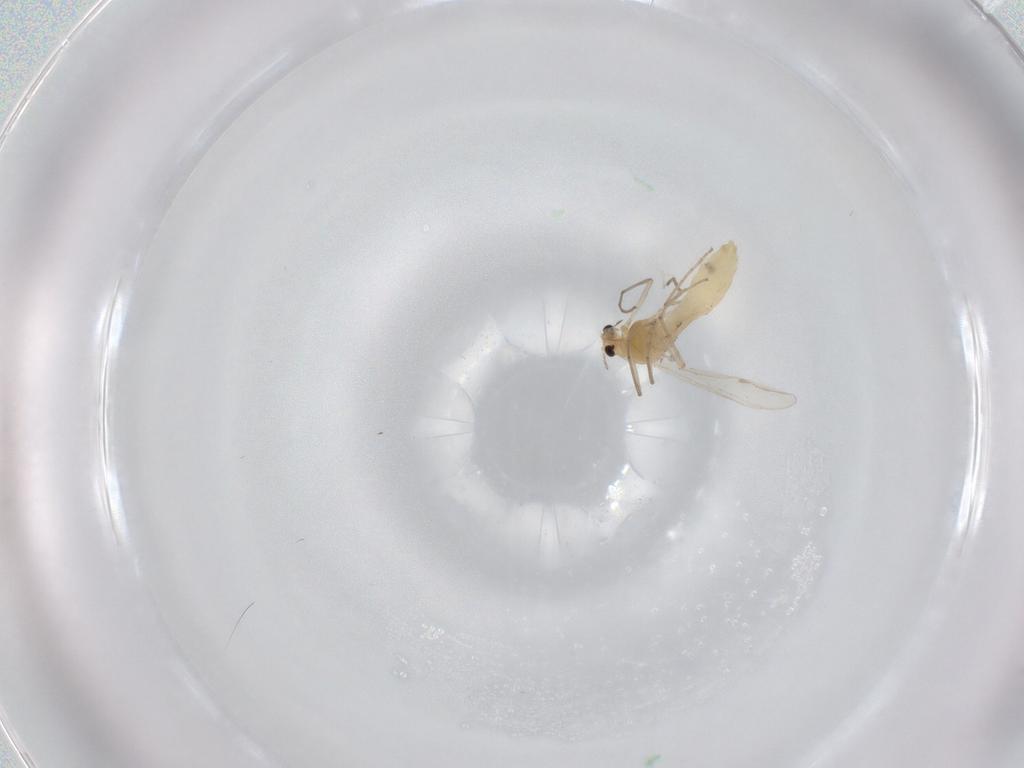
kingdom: Animalia
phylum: Arthropoda
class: Insecta
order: Diptera
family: Chironomidae
